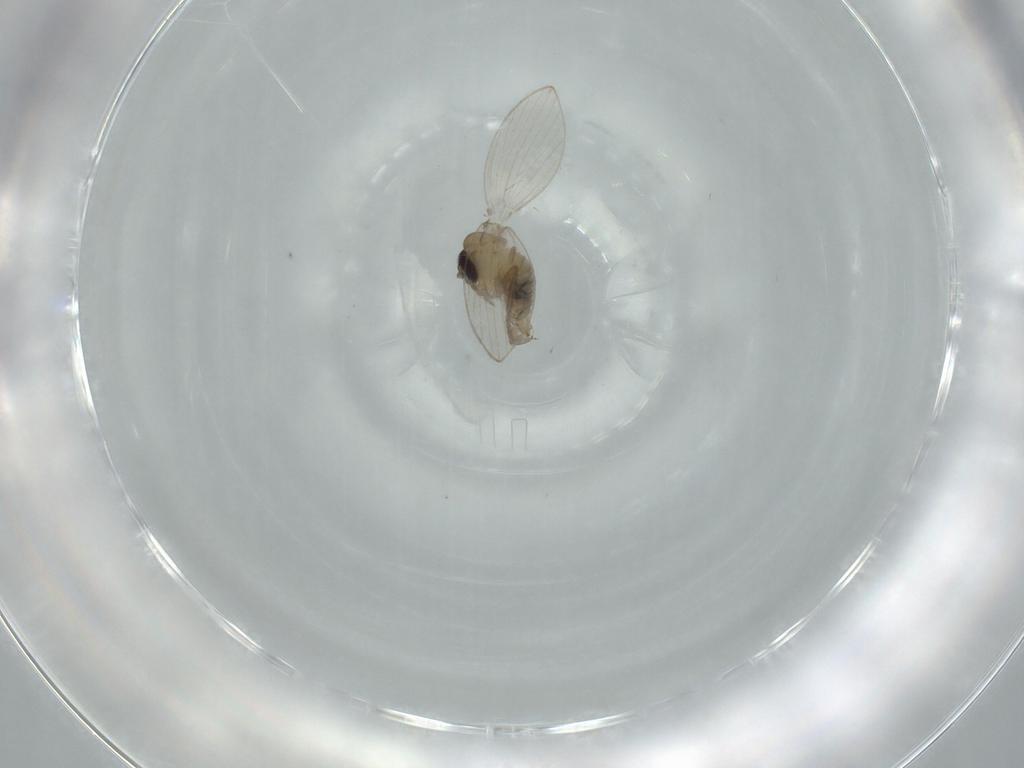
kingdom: Animalia
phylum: Arthropoda
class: Insecta
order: Diptera
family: Psychodidae
